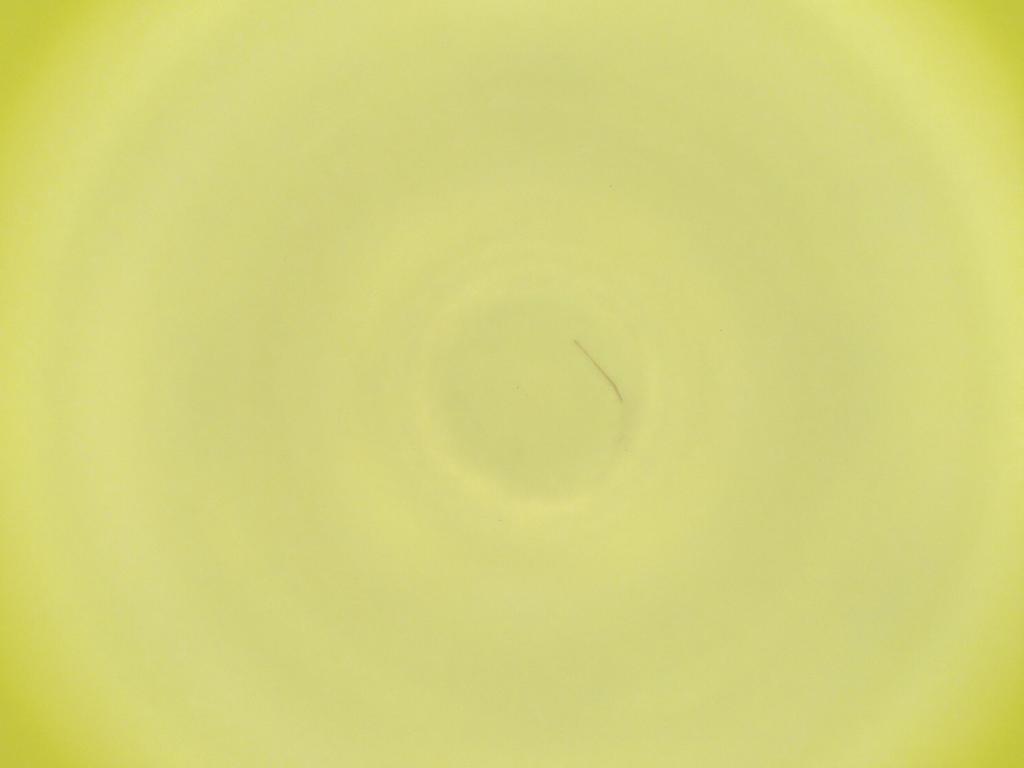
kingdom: Animalia
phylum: Arthropoda
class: Insecta
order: Diptera
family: Cecidomyiidae
